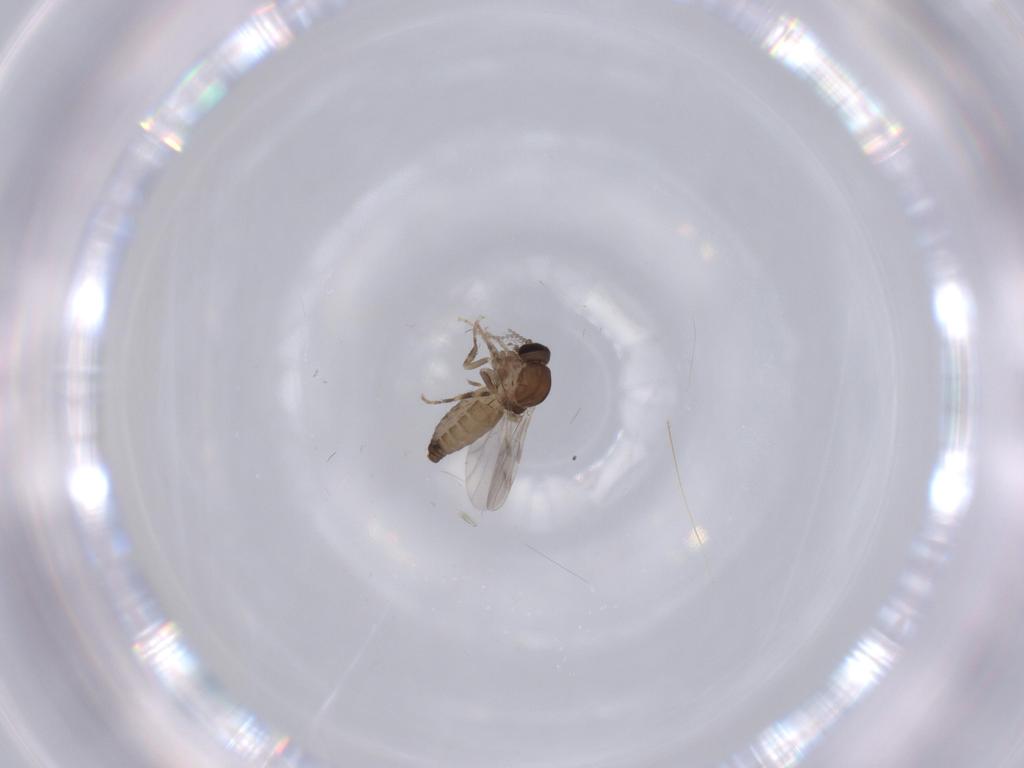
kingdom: Animalia
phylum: Arthropoda
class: Insecta
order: Diptera
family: Ceratopogonidae
